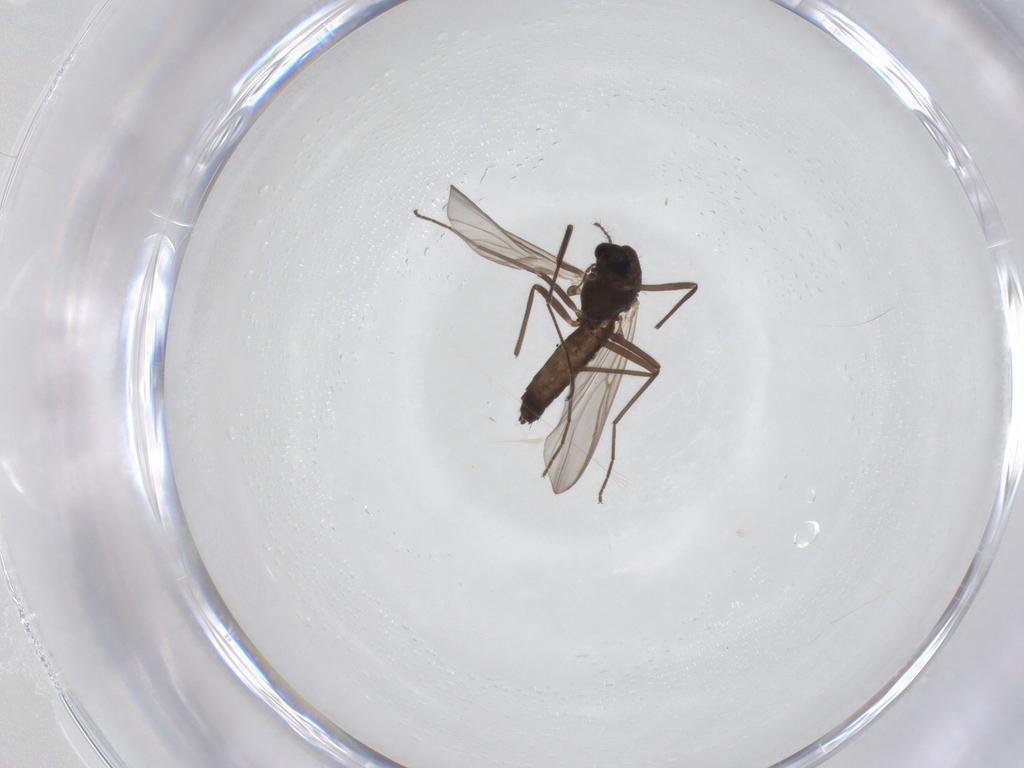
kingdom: Animalia
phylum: Arthropoda
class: Insecta
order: Diptera
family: Chironomidae
